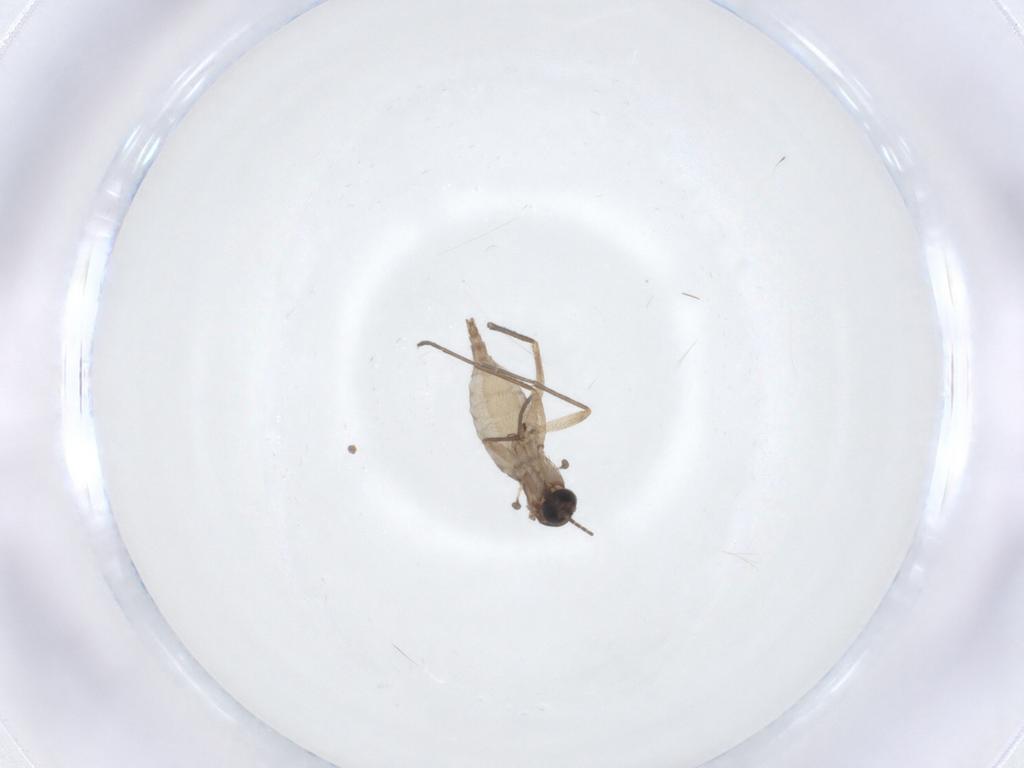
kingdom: Animalia
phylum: Arthropoda
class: Insecta
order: Diptera
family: Sciaridae
